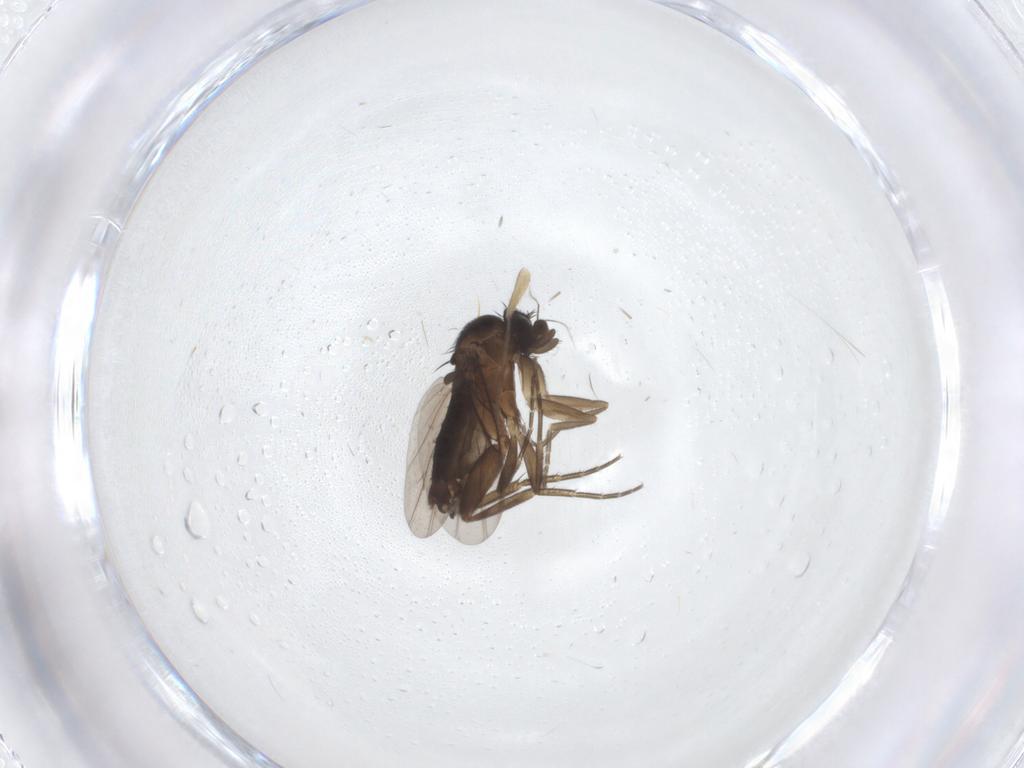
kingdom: Animalia
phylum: Arthropoda
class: Insecta
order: Diptera
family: Phoridae
